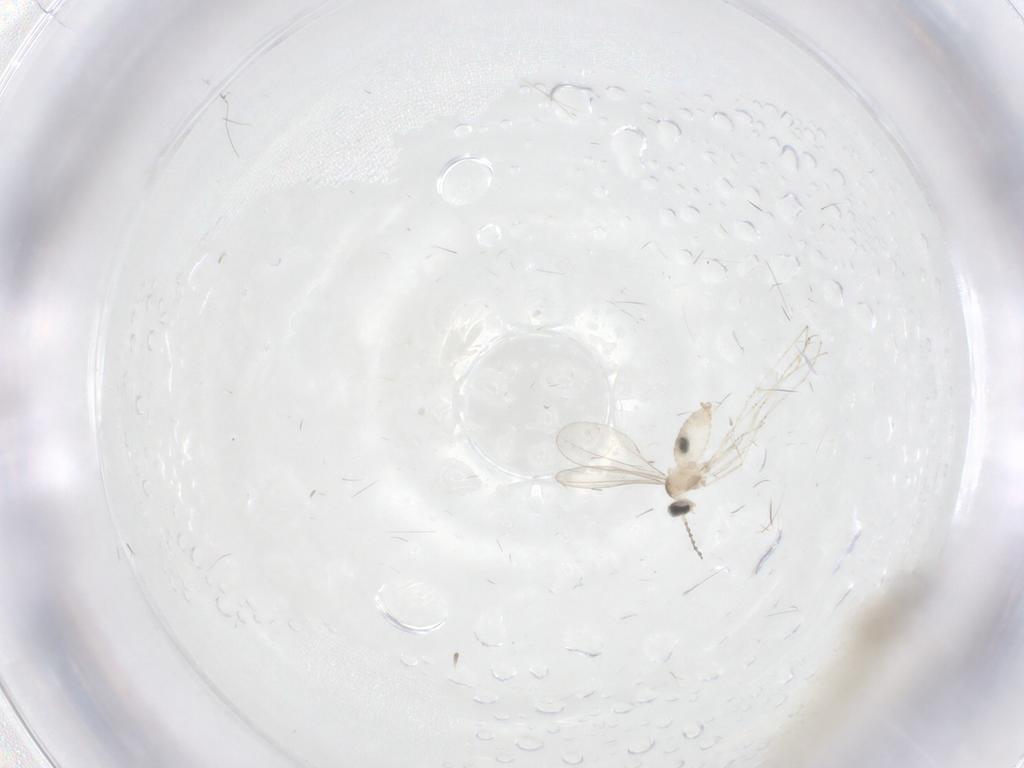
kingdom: Animalia
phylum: Arthropoda
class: Insecta
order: Diptera
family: Cecidomyiidae
